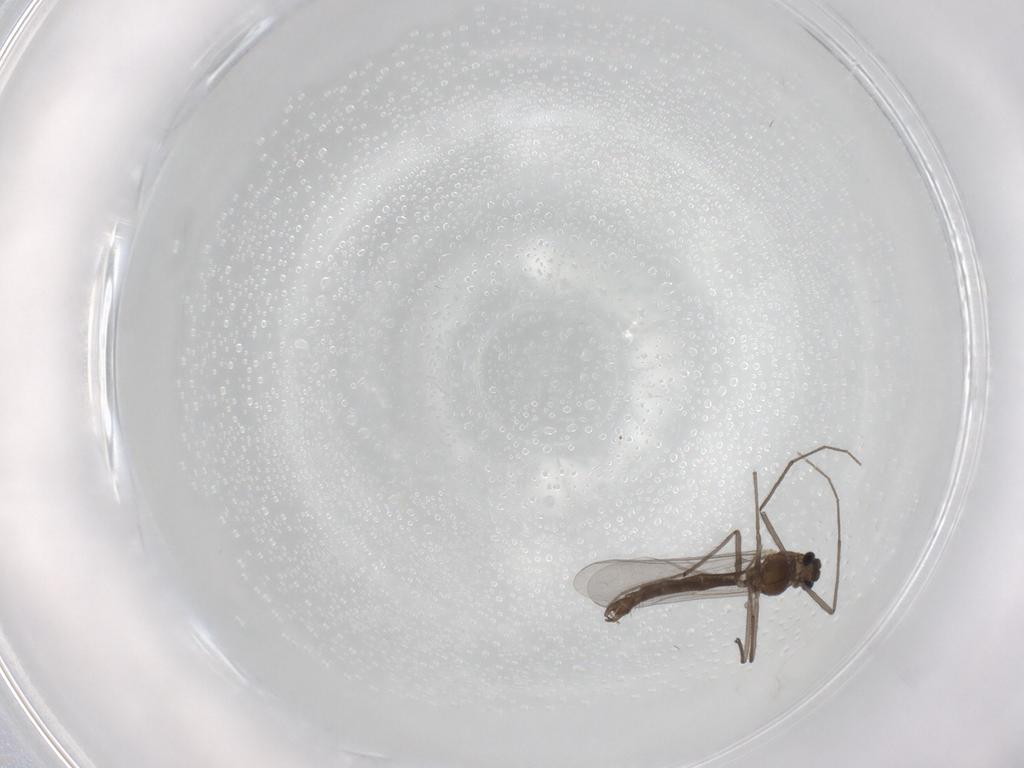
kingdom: Animalia
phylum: Arthropoda
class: Insecta
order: Diptera
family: Chironomidae
